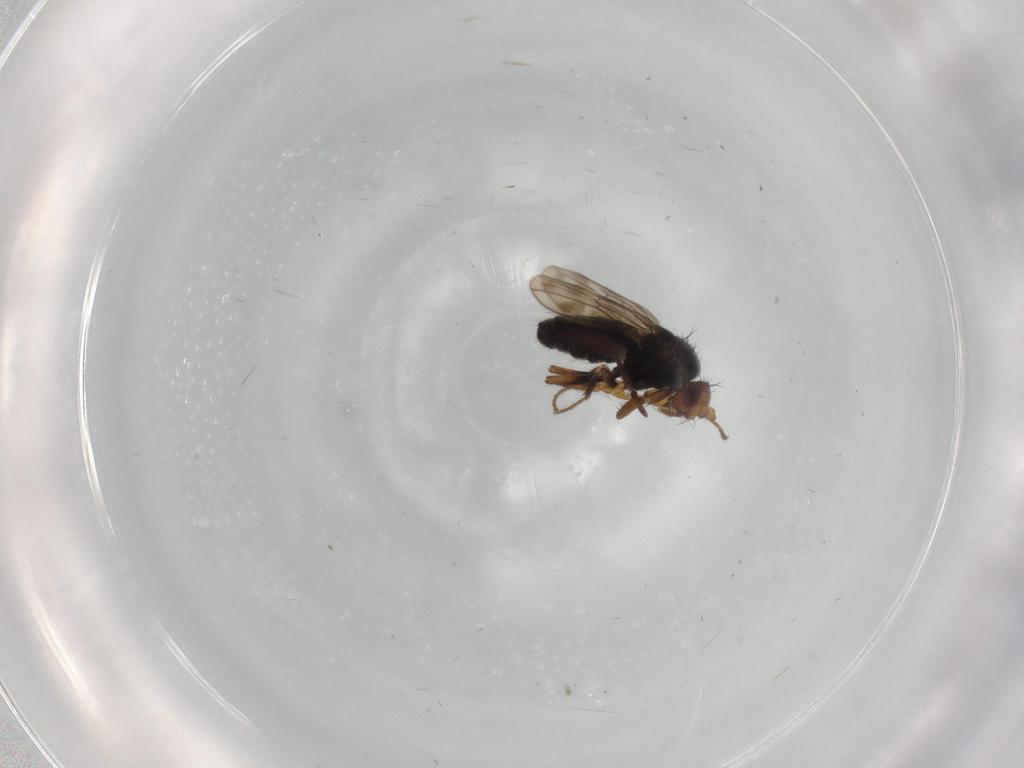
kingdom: Animalia
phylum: Arthropoda
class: Insecta
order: Diptera
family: Sphaeroceridae
